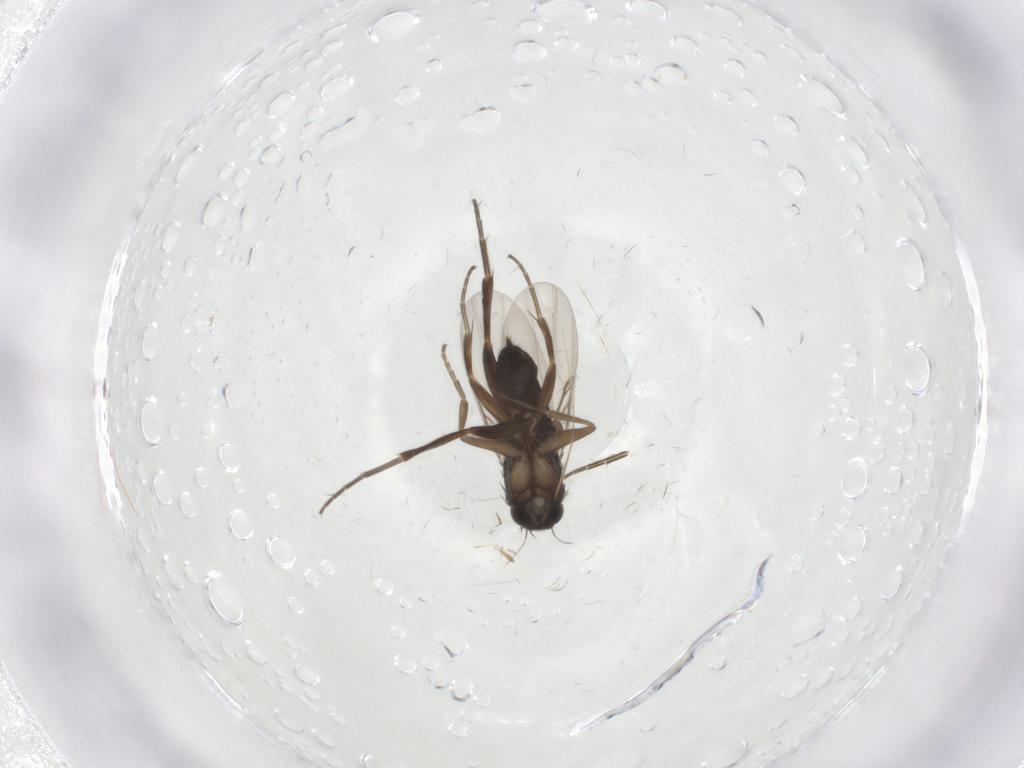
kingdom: Animalia
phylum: Arthropoda
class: Insecta
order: Diptera
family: Phoridae
